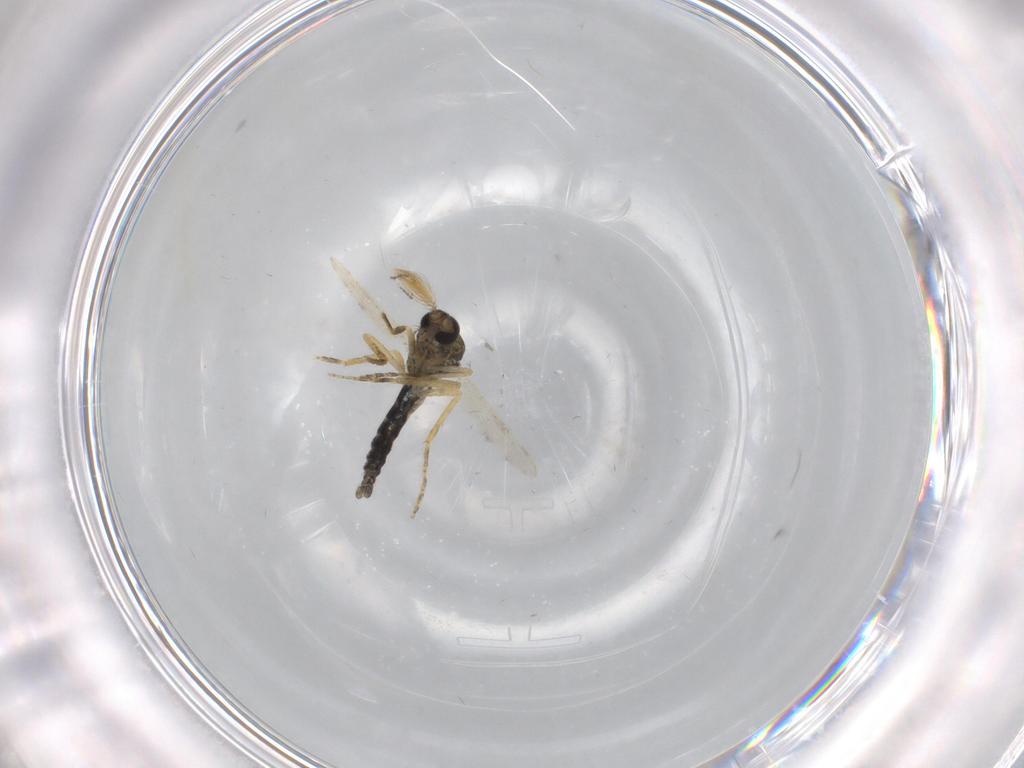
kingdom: Animalia
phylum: Arthropoda
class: Insecta
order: Diptera
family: Ceratopogonidae
